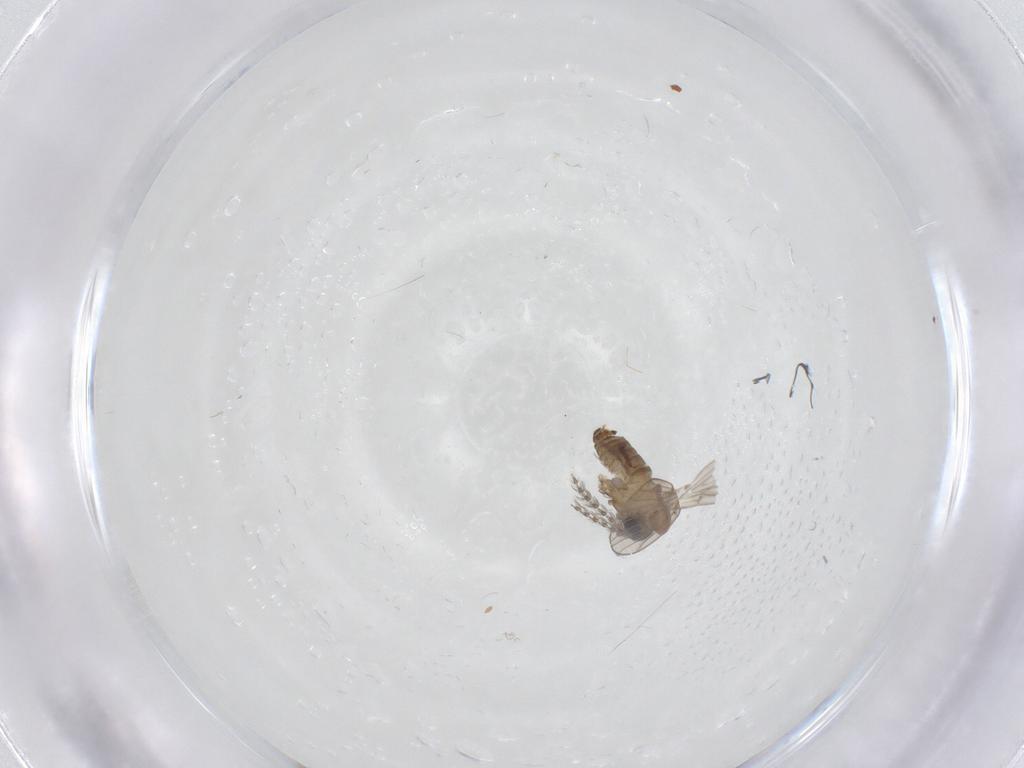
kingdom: Animalia
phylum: Arthropoda
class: Insecta
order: Diptera
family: Psychodidae
